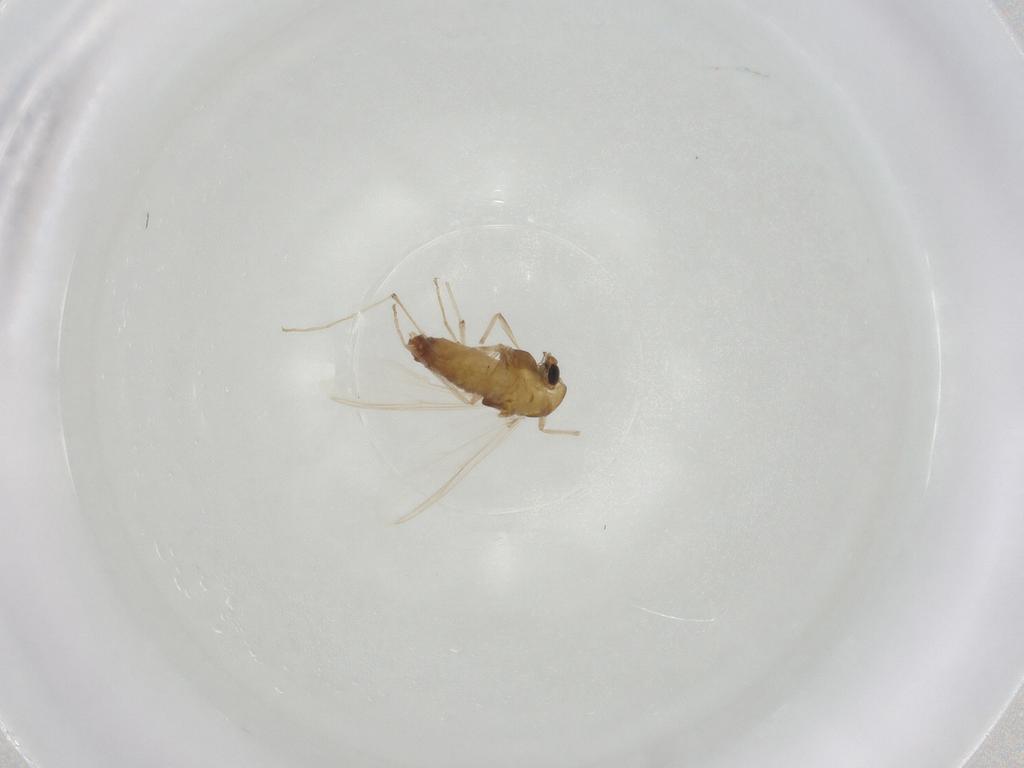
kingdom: Animalia
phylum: Arthropoda
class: Insecta
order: Diptera
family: Chironomidae
